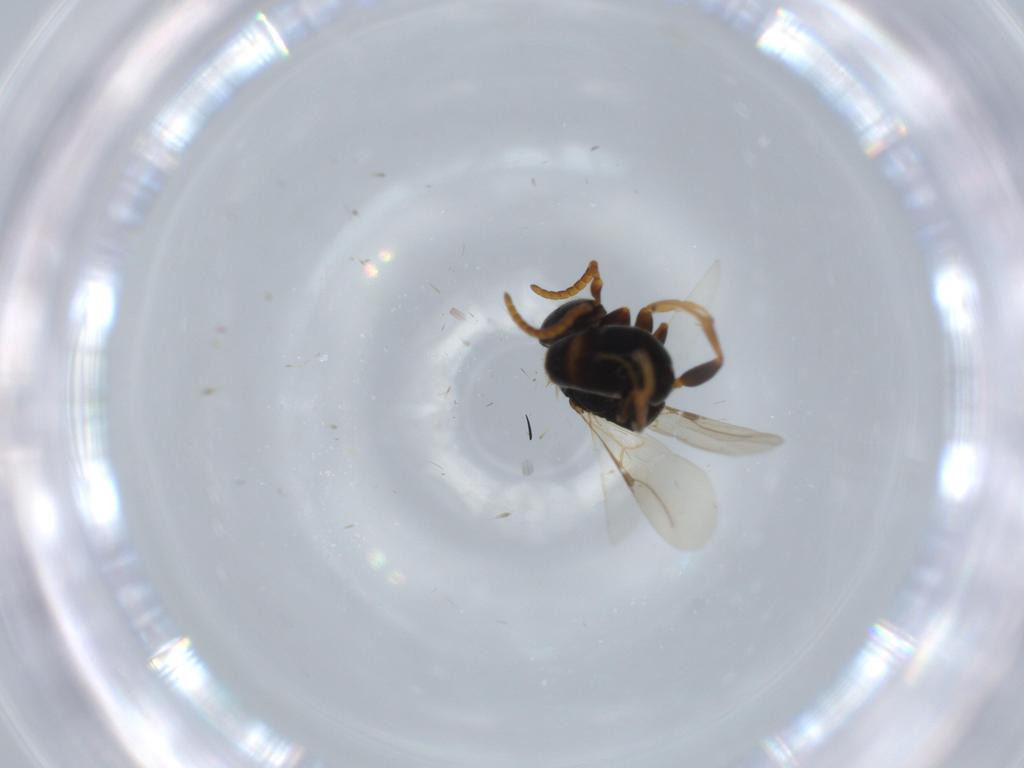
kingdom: Animalia
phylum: Arthropoda
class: Insecta
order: Hymenoptera
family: Bethylidae
